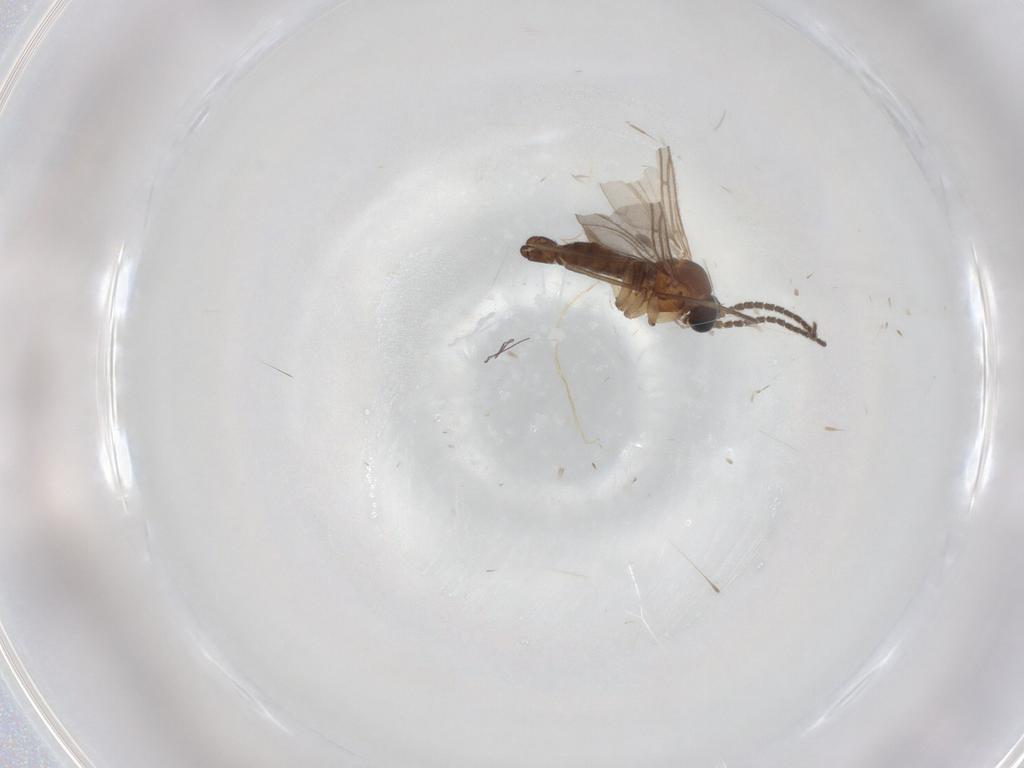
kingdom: Animalia
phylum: Arthropoda
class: Insecta
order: Diptera
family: Sciaridae
